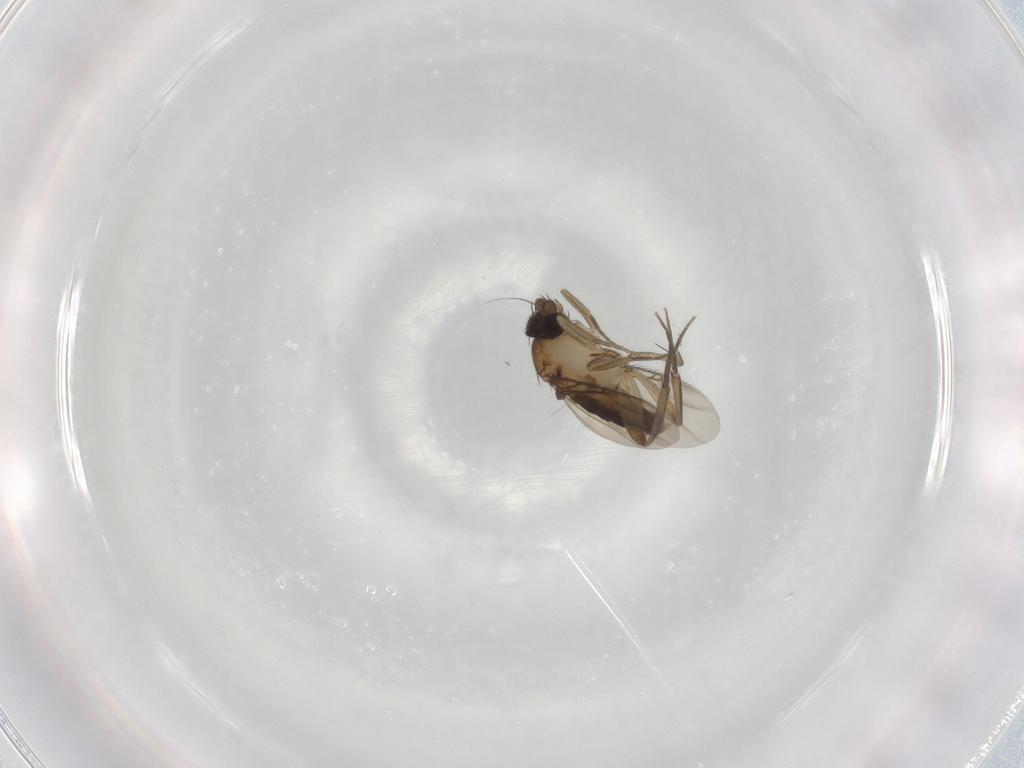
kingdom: Animalia
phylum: Arthropoda
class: Insecta
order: Diptera
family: Phoridae
